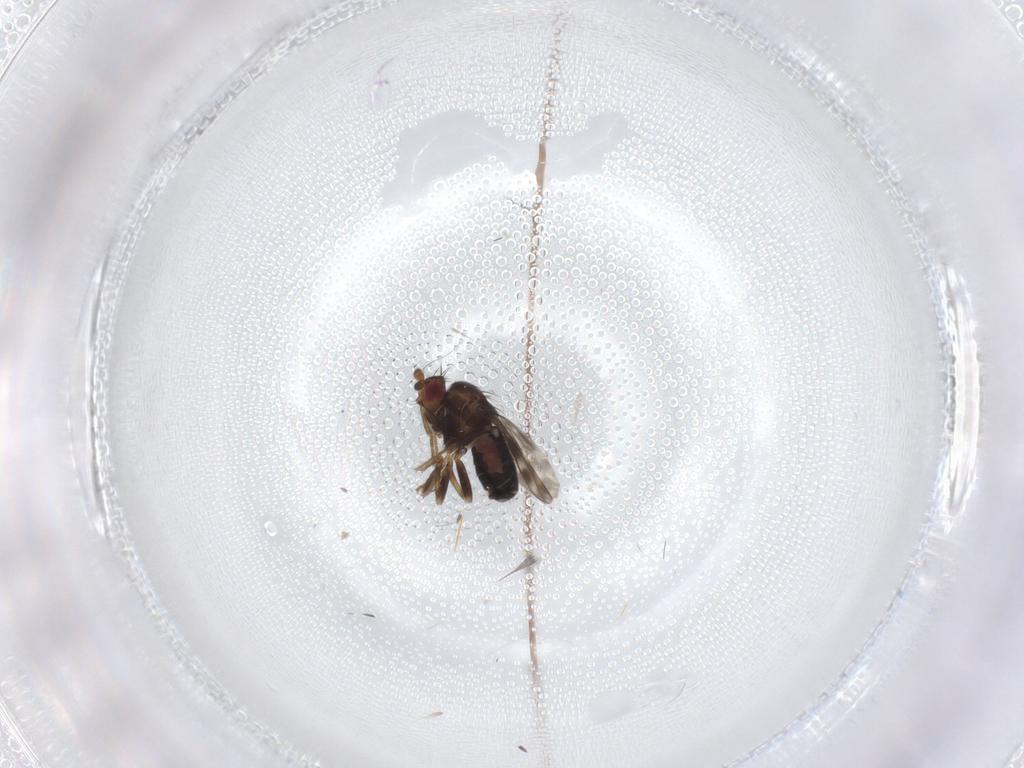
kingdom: Animalia
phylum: Arthropoda
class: Insecta
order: Diptera
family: Sphaeroceridae
